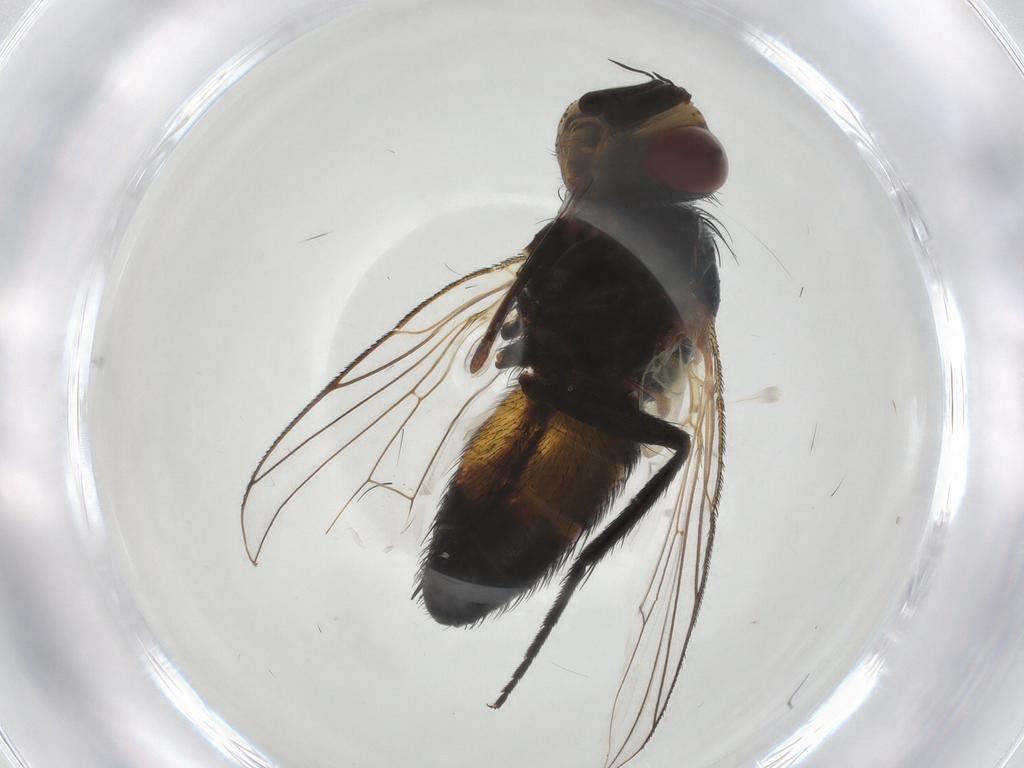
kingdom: Animalia
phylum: Arthropoda
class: Insecta
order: Diptera
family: Tachinidae
